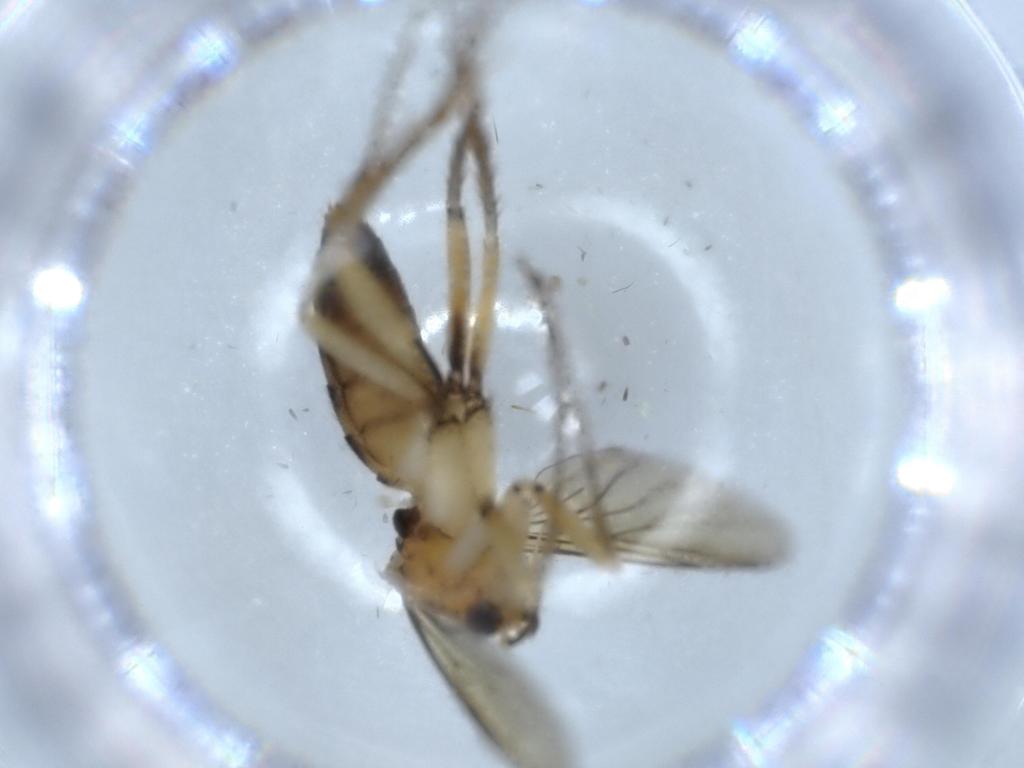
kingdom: Animalia
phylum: Arthropoda
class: Insecta
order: Diptera
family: Mycetophilidae
